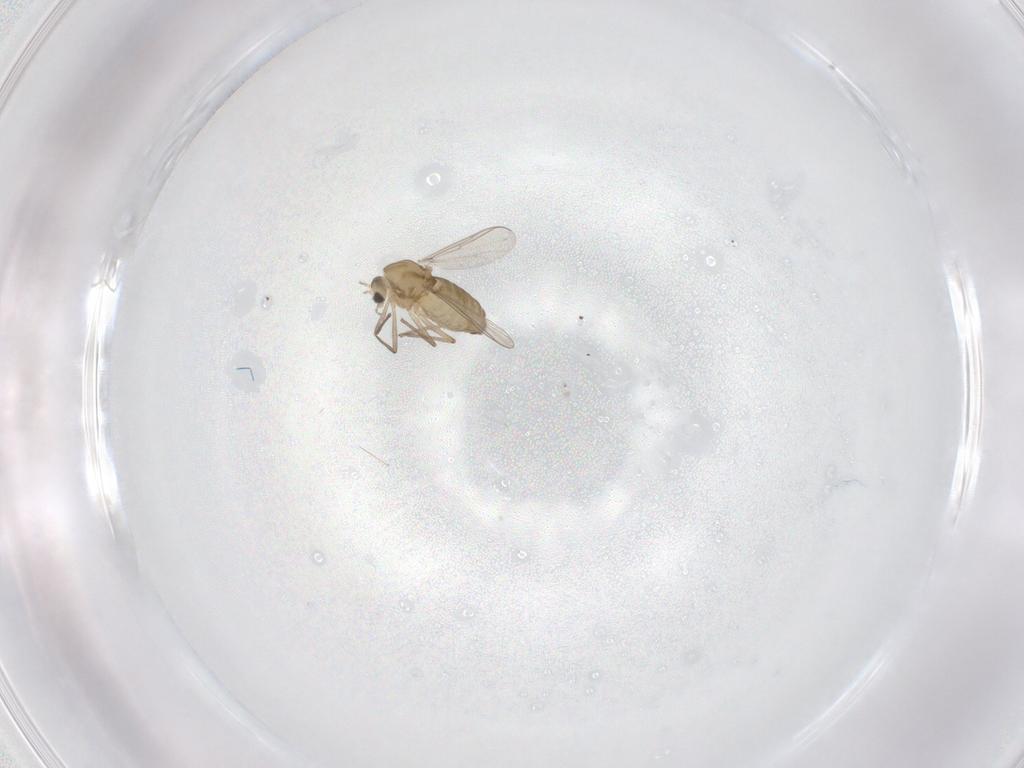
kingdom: Animalia
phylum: Arthropoda
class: Insecta
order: Diptera
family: Chironomidae
